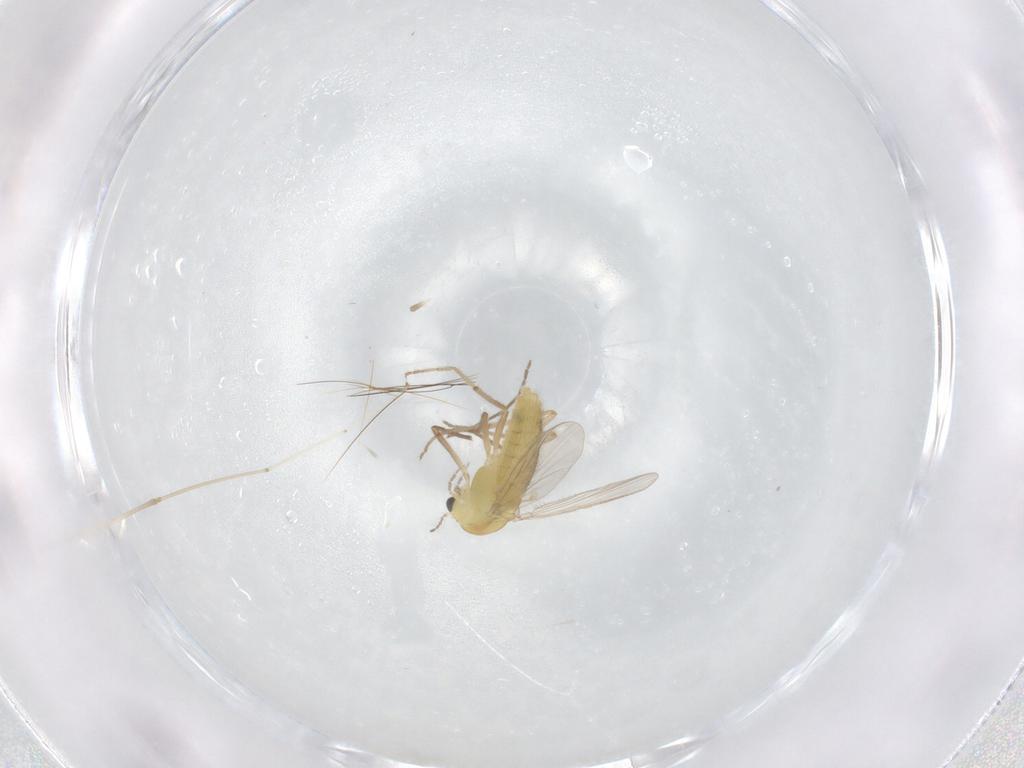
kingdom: Animalia
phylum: Arthropoda
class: Insecta
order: Diptera
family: Chironomidae
